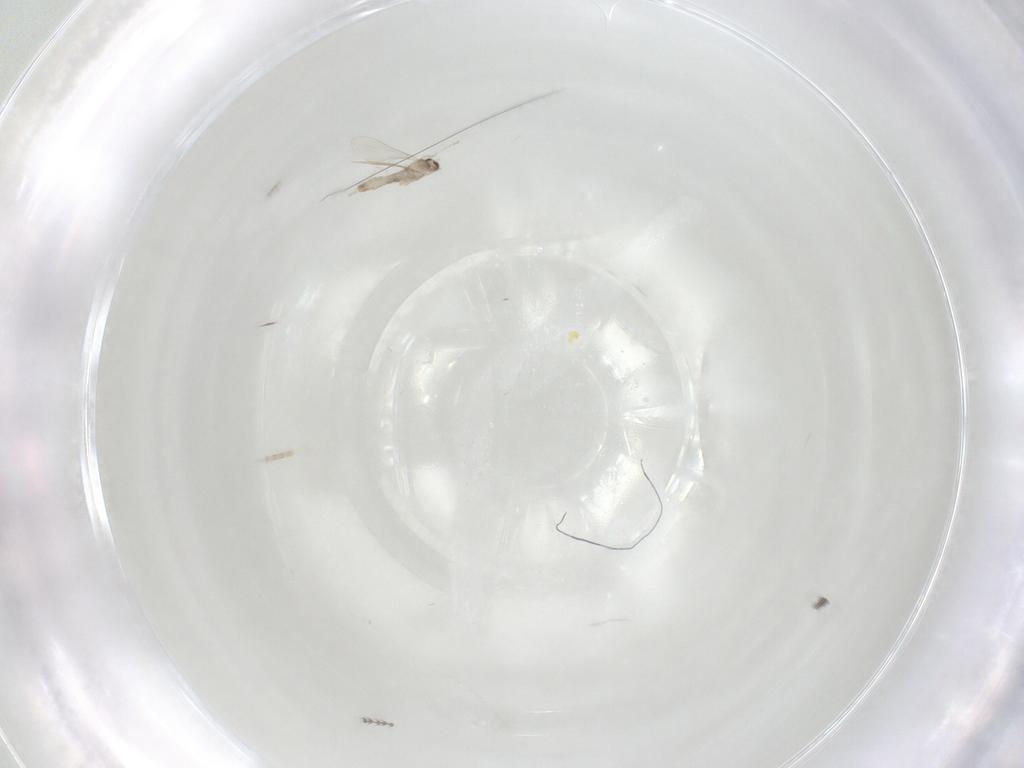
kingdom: Animalia
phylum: Arthropoda
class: Insecta
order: Diptera
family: Cecidomyiidae
